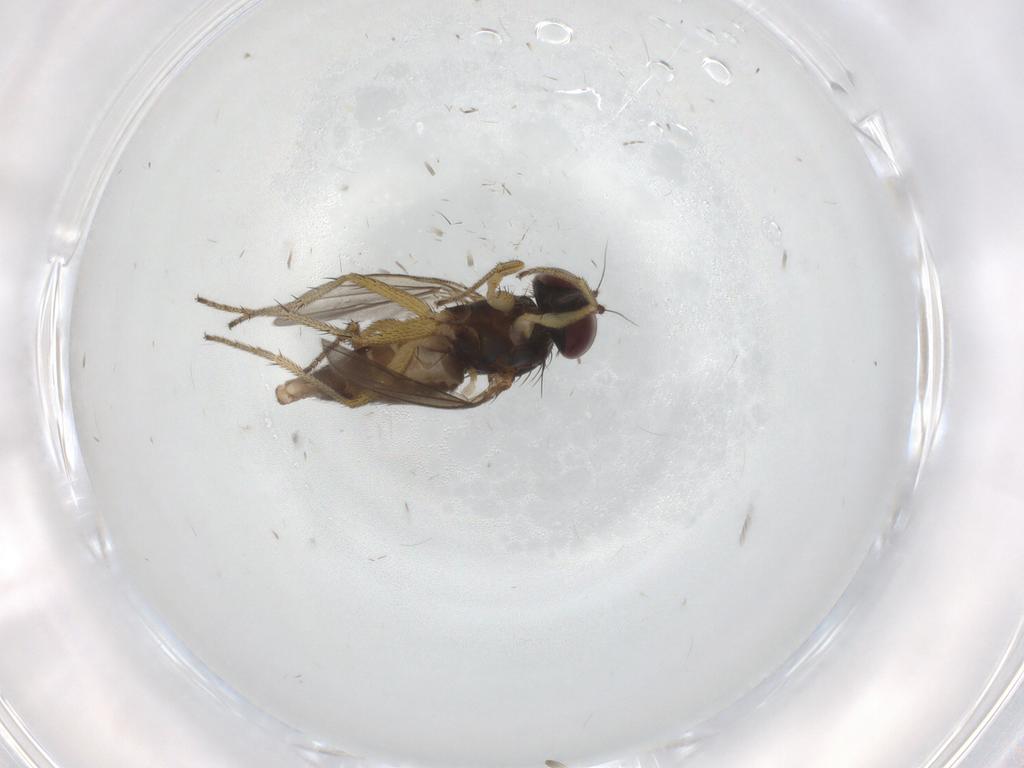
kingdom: Animalia
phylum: Arthropoda
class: Insecta
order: Diptera
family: Dolichopodidae
